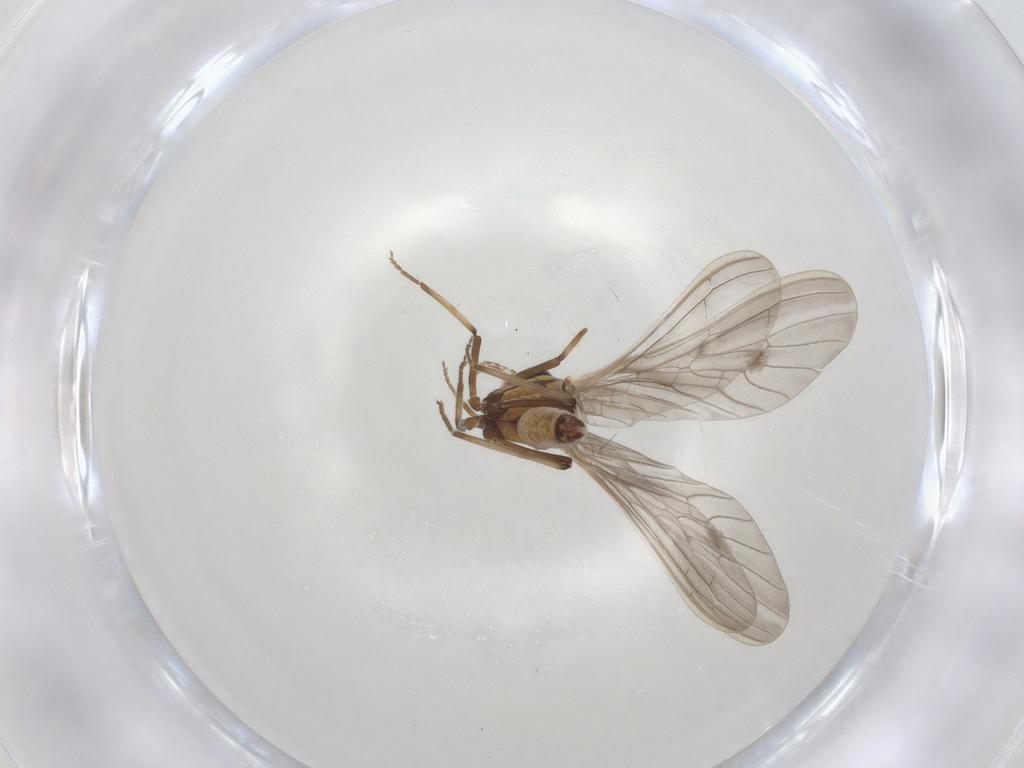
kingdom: Animalia
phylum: Arthropoda
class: Insecta
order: Neuroptera
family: Coniopterygidae
